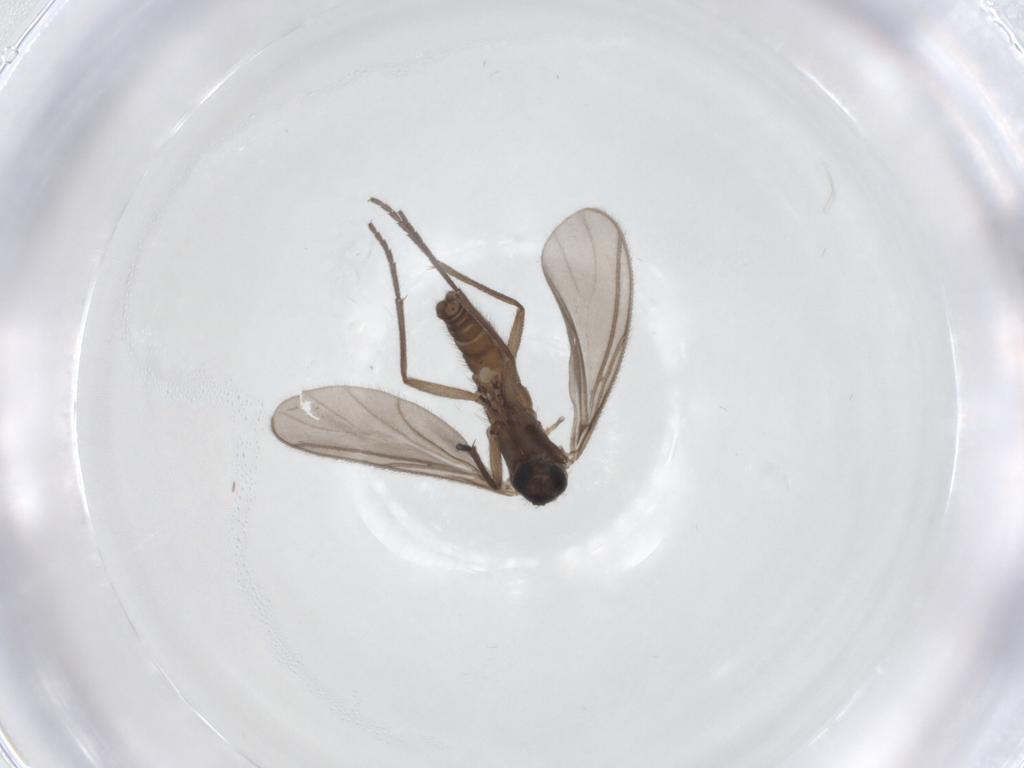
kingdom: Animalia
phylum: Arthropoda
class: Insecta
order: Diptera
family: Sciaridae
